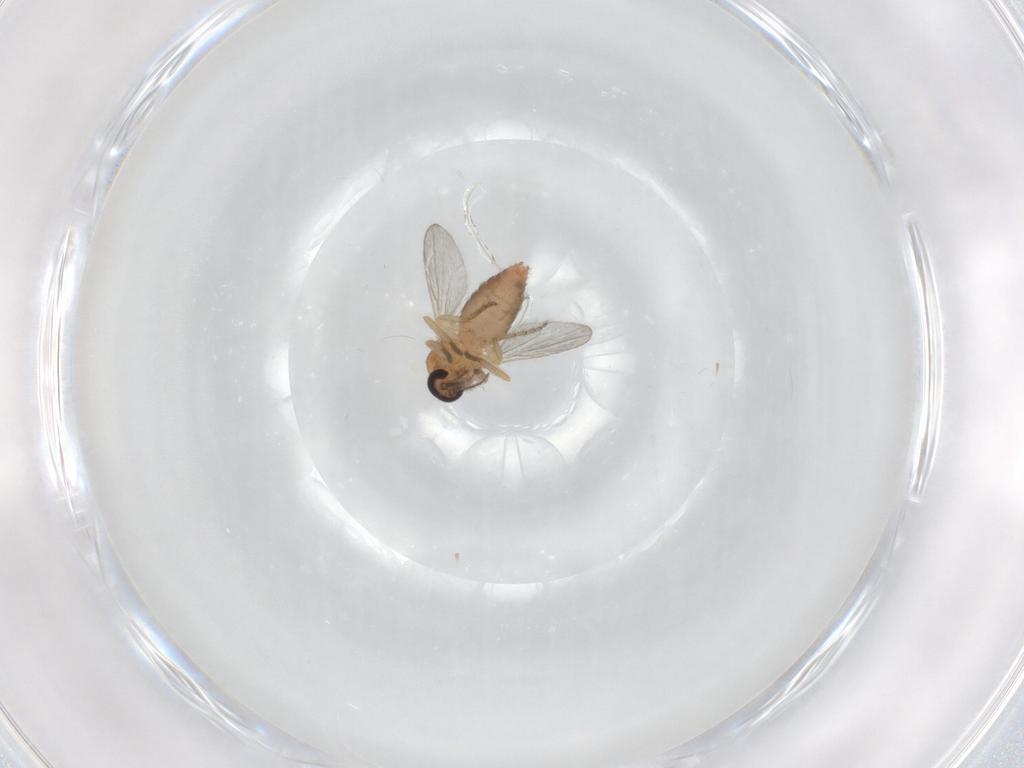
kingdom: Animalia
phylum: Arthropoda
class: Insecta
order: Diptera
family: Ceratopogonidae
